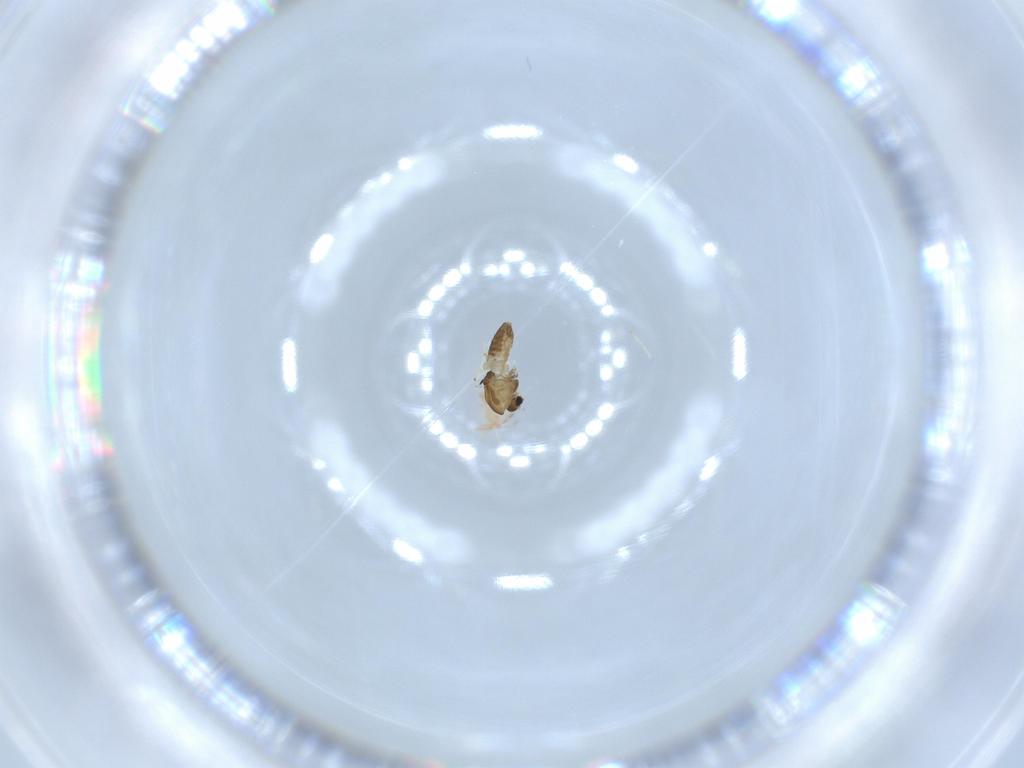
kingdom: Animalia
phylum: Arthropoda
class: Insecta
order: Diptera
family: Chironomidae
